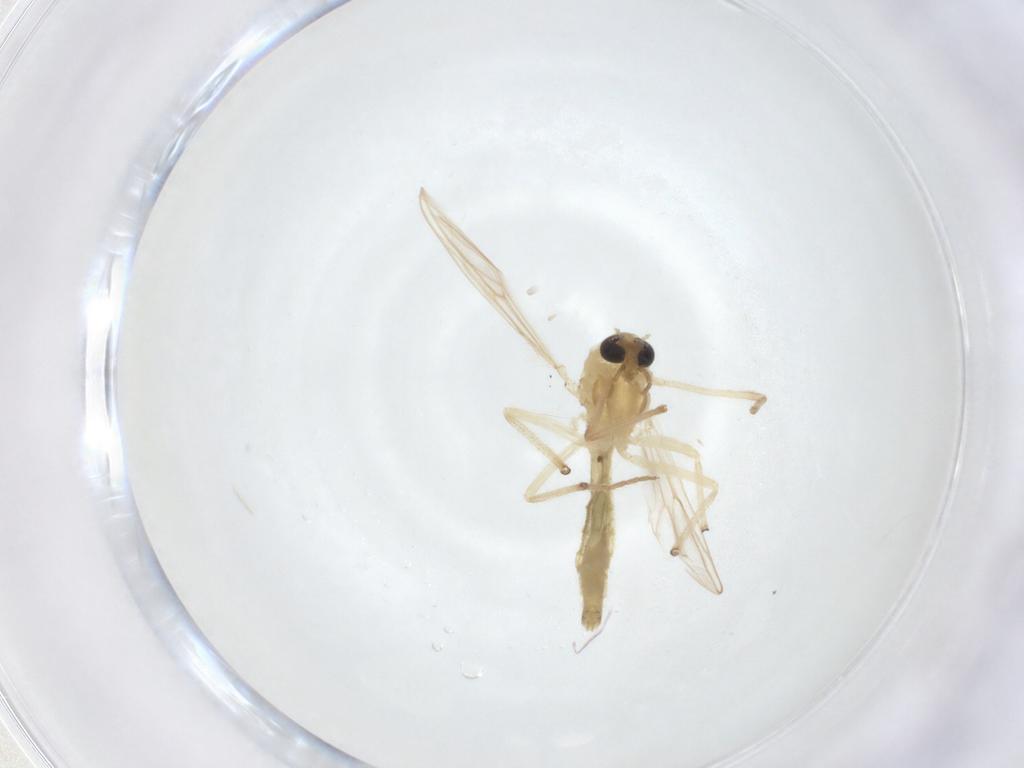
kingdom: Animalia
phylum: Arthropoda
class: Insecta
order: Diptera
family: Chironomidae
